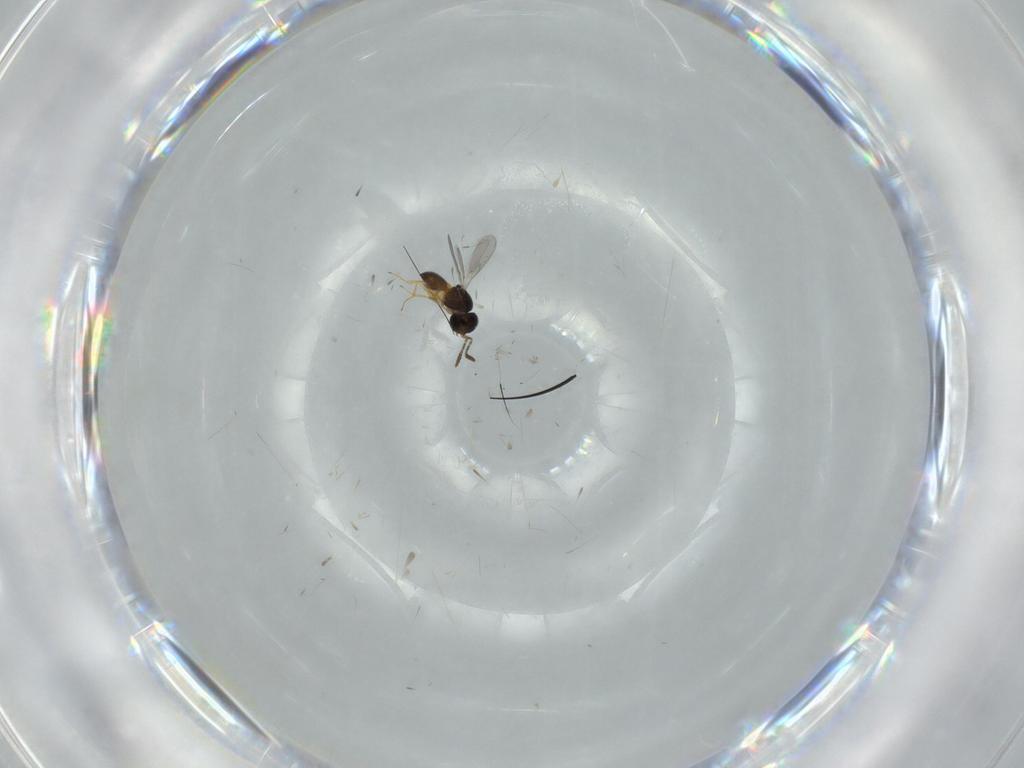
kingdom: Animalia
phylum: Arthropoda
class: Insecta
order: Hymenoptera
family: Scelionidae
